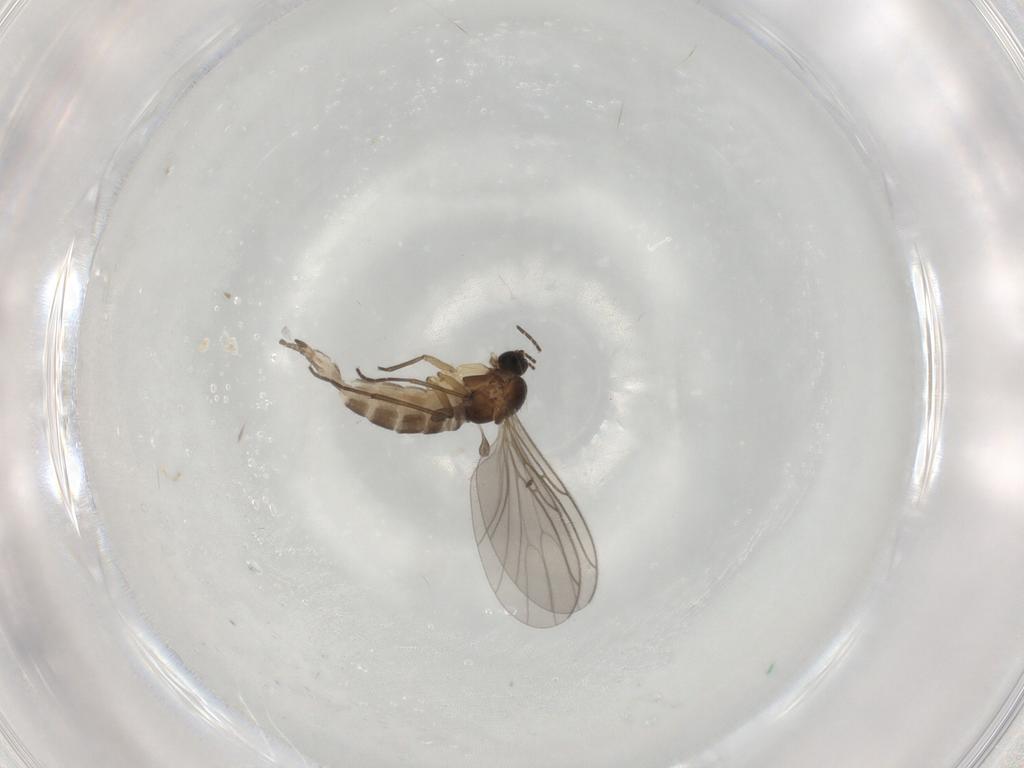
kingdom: Animalia
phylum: Arthropoda
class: Insecta
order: Diptera
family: Sciaridae
